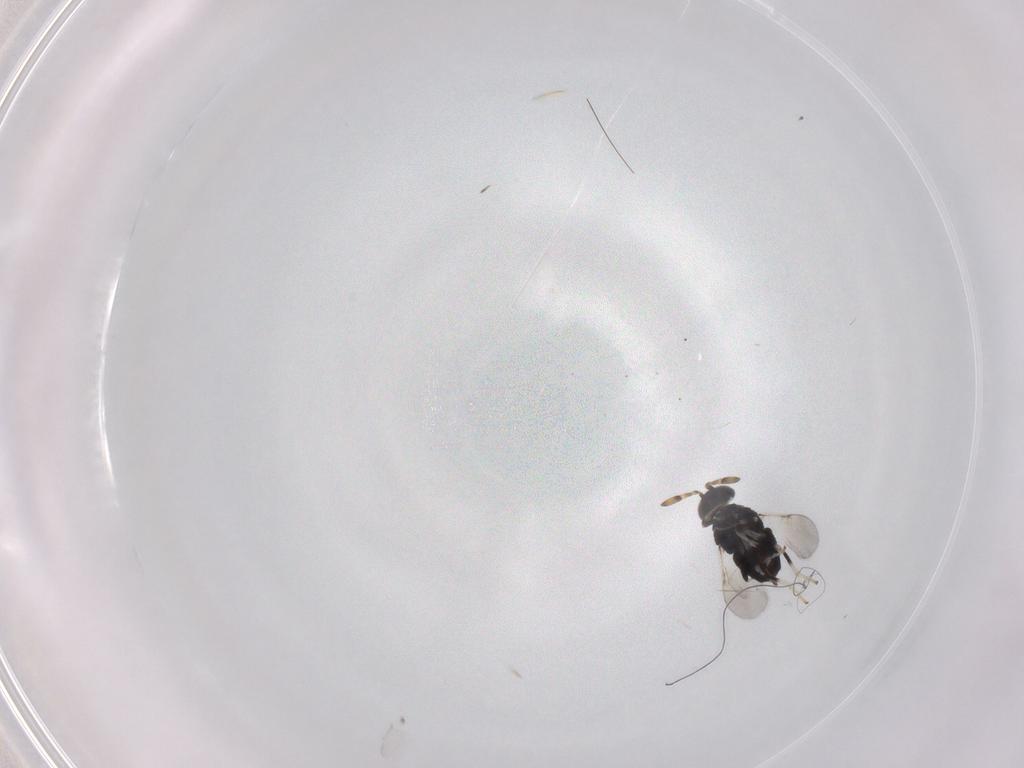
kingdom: Animalia
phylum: Arthropoda
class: Insecta
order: Hymenoptera
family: Encyrtidae
